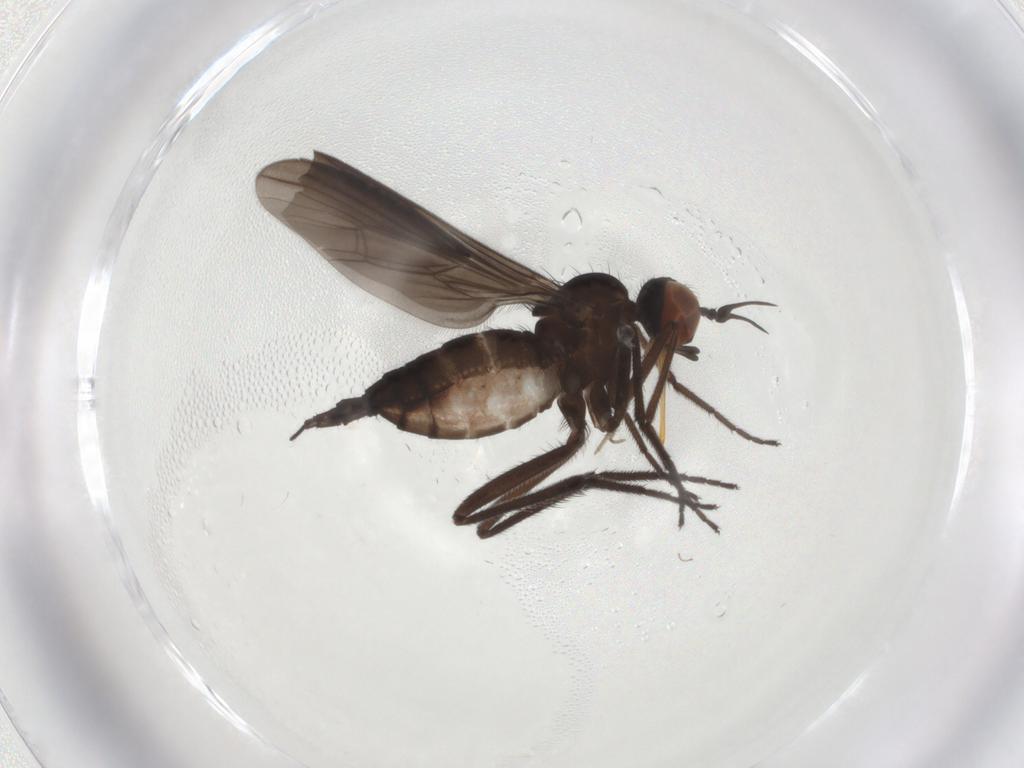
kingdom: Animalia
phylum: Arthropoda
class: Insecta
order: Diptera
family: Empididae
